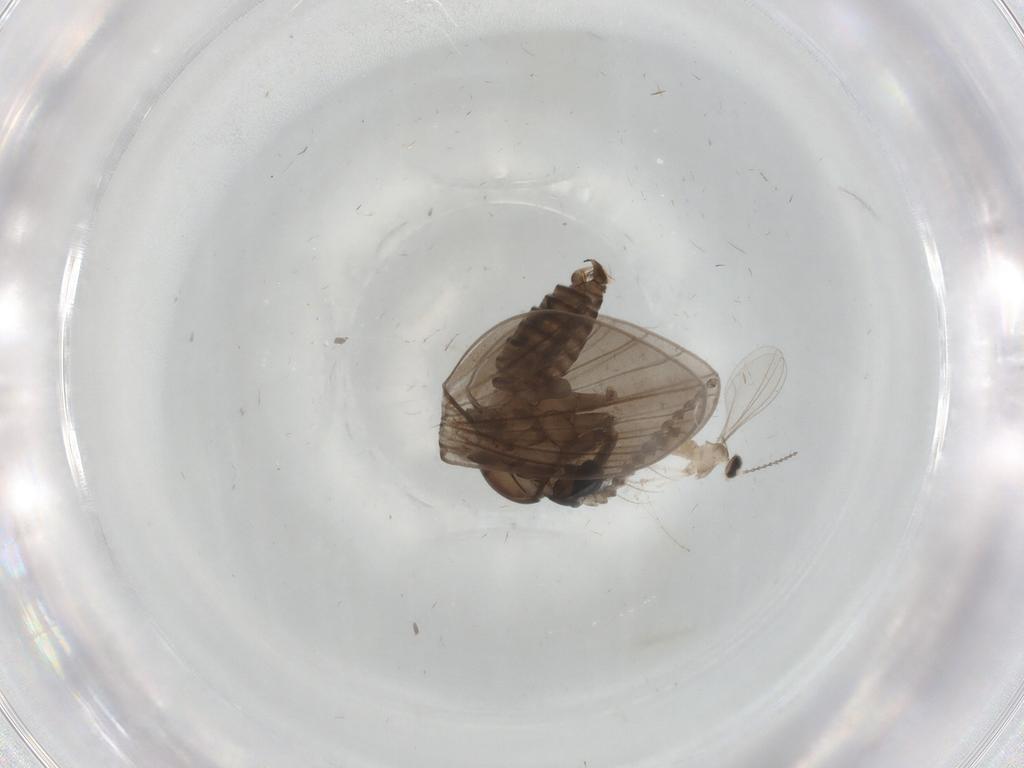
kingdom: Animalia
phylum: Arthropoda
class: Insecta
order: Diptera
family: Cecidomyiidae
